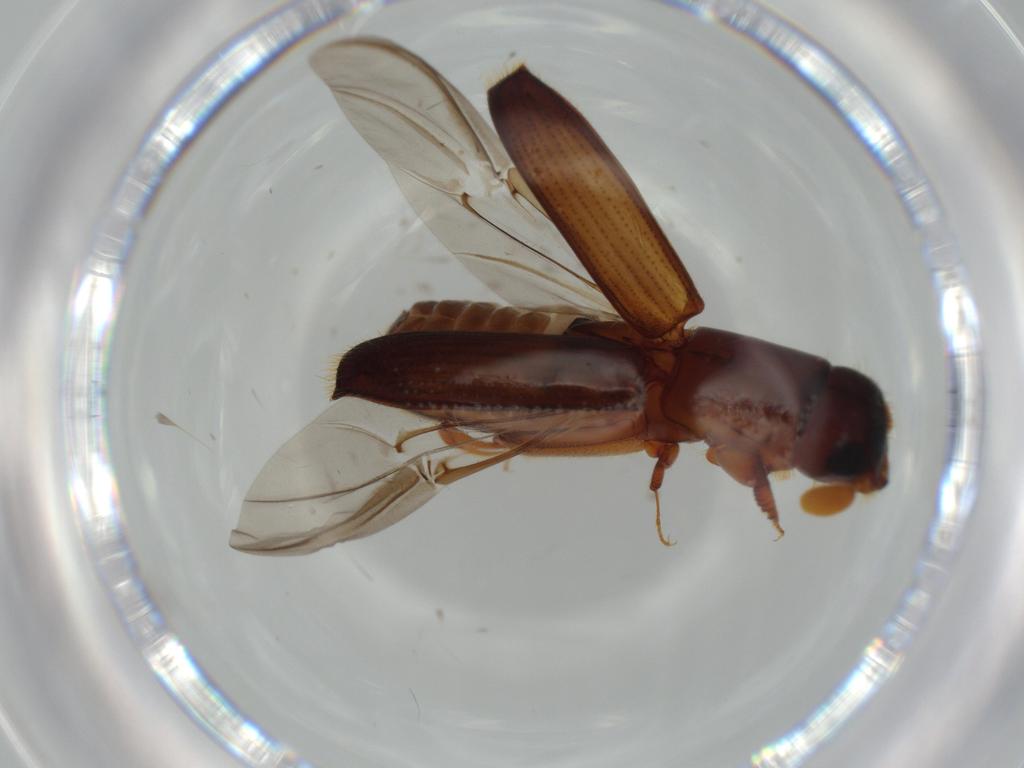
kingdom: Animalia
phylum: Arthropoda
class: Insecta
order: Coleoptera
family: Curculionidae
